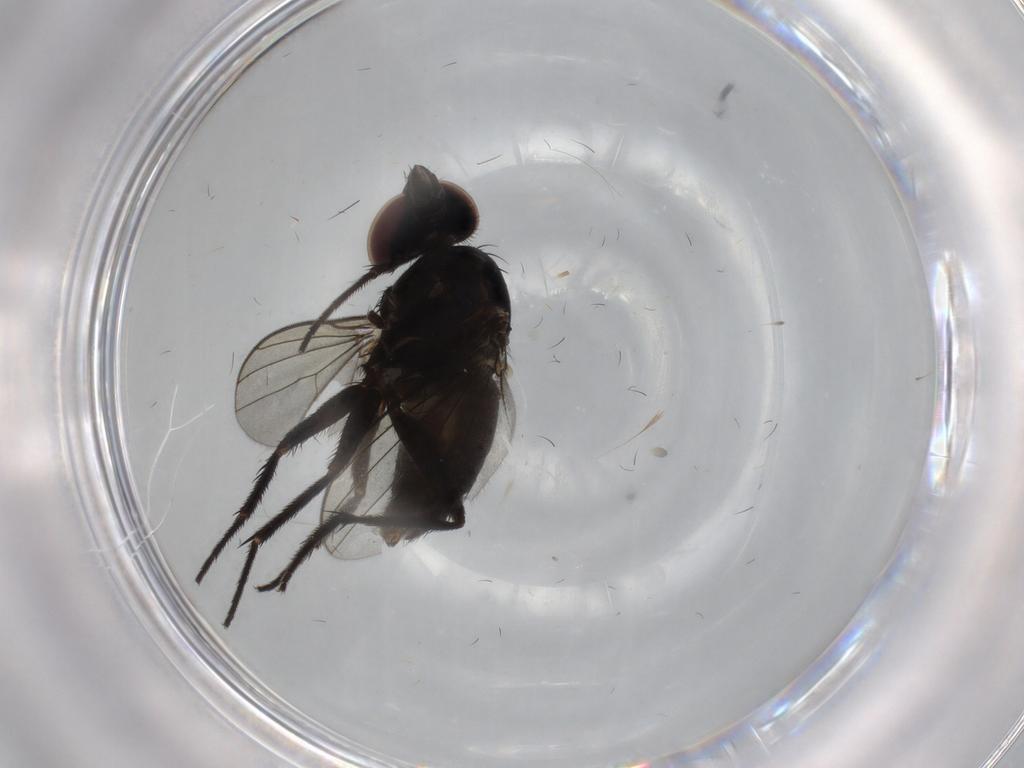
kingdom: Animalia
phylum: Arthropoda
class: Insecta
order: Diptera
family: Dolichopodidae
